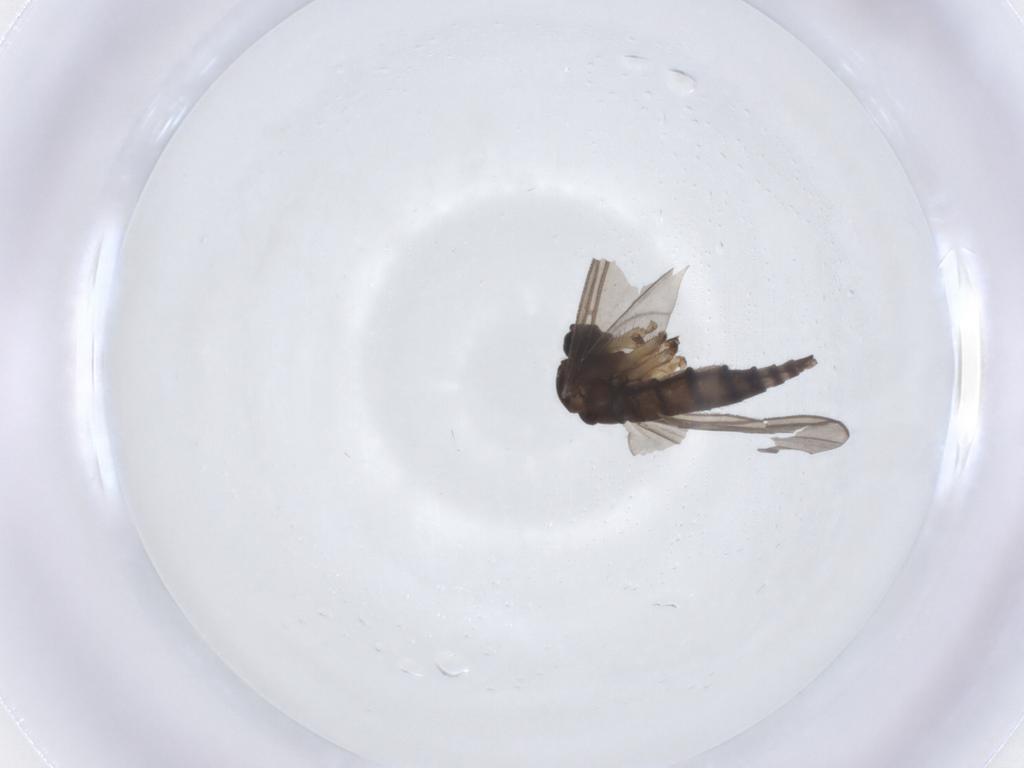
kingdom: Animalia
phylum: Arthropoda
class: Insecta
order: Diptera
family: Sciaridae
